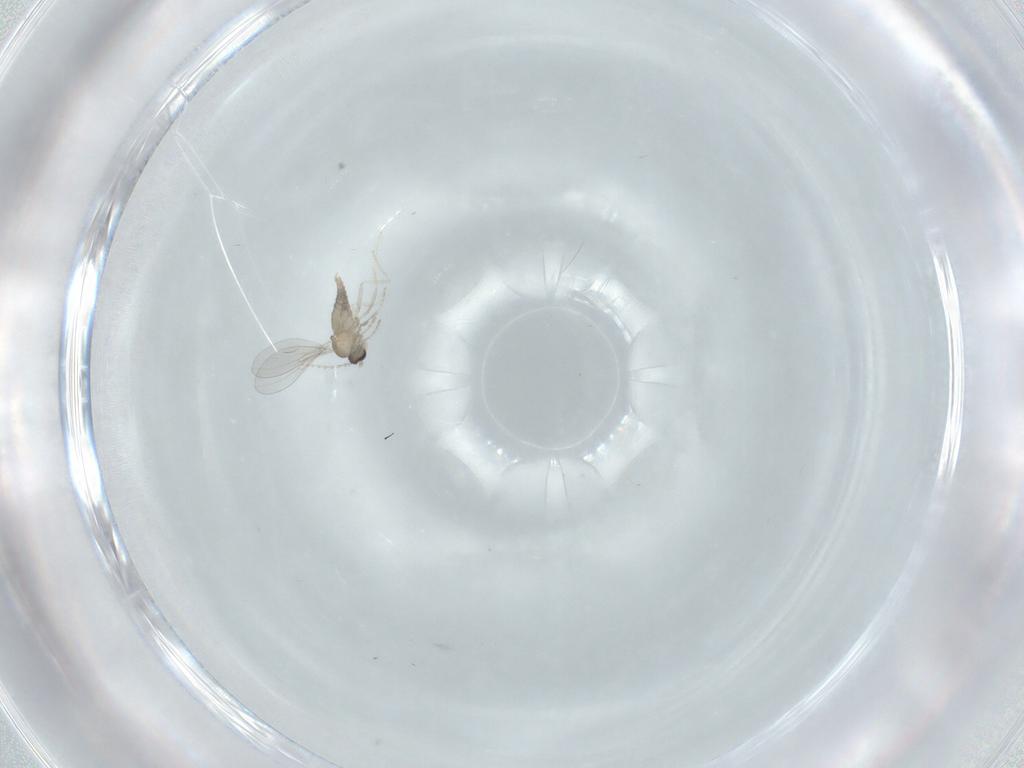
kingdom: Animalia
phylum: Arthropoda
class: Insecta
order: Diptera
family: Cecidomyiidae
